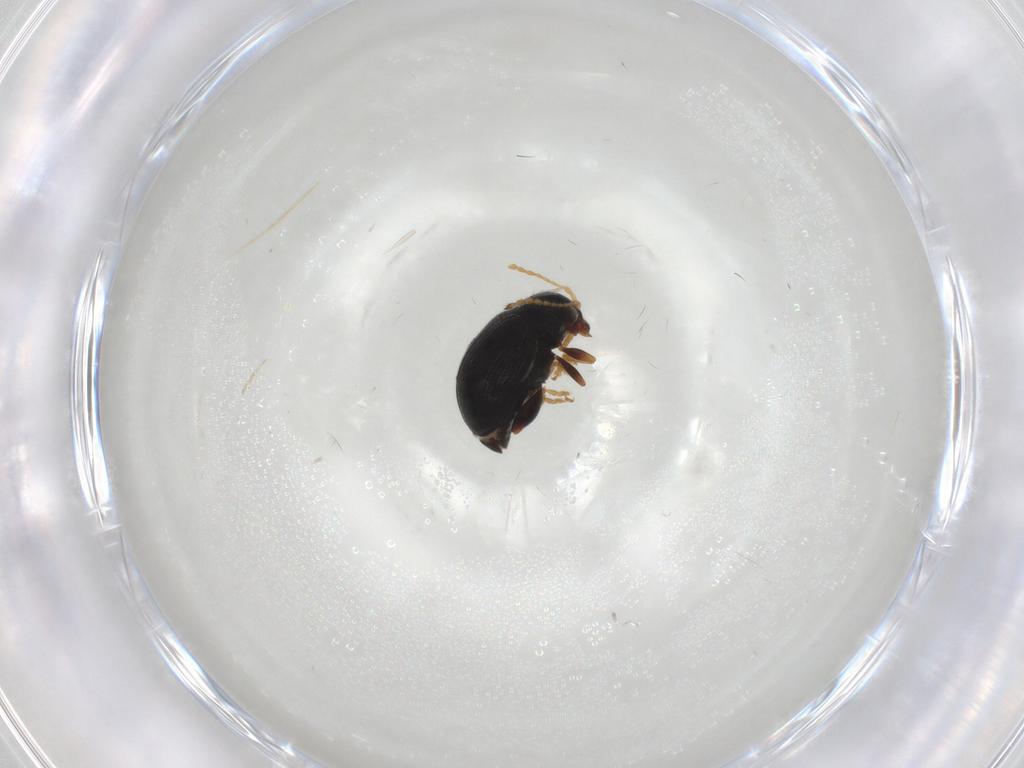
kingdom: Animalia
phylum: Arthropoda
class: Insecta
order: Coleoptera
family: Chrysomelidae
